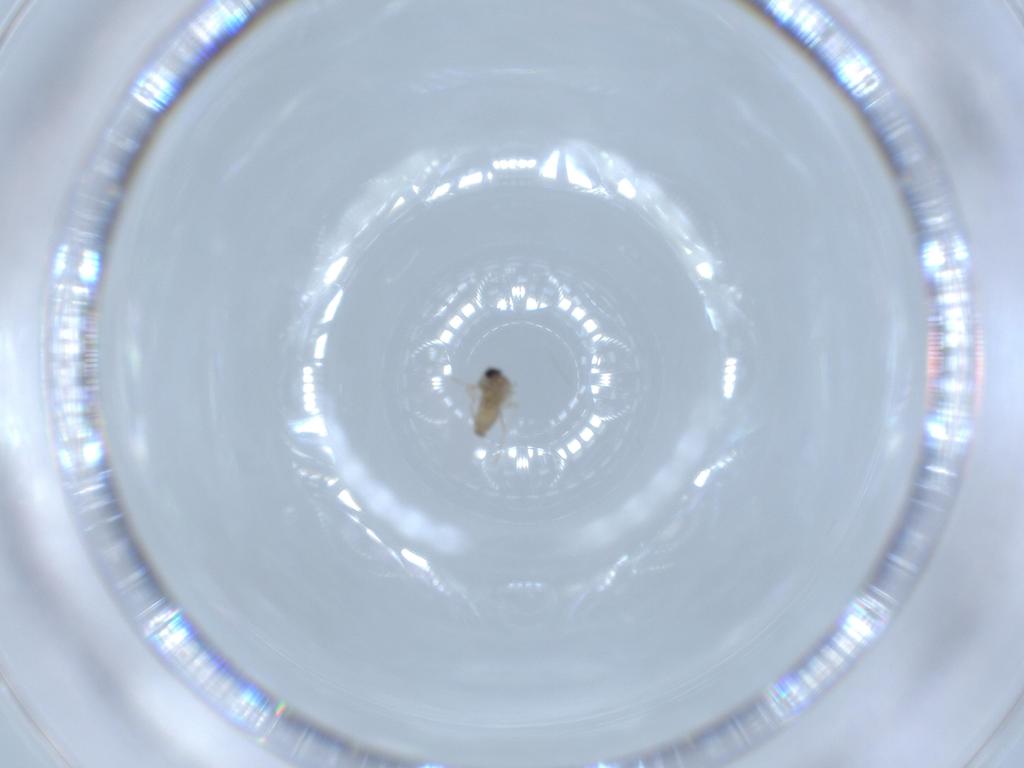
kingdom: Animalia
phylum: Arthropoda
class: Insecta
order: Diptera
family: Cecidomyiidae
